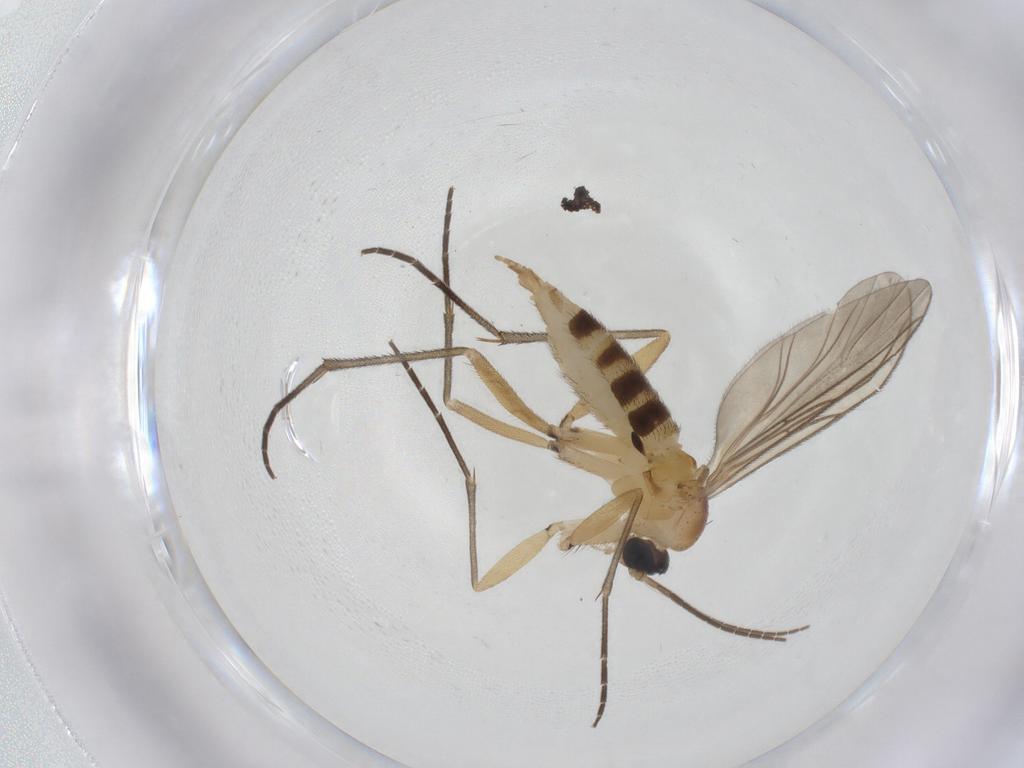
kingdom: Animalia
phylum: Arthropoda
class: Insecta
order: Diptera
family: Sciaridae
